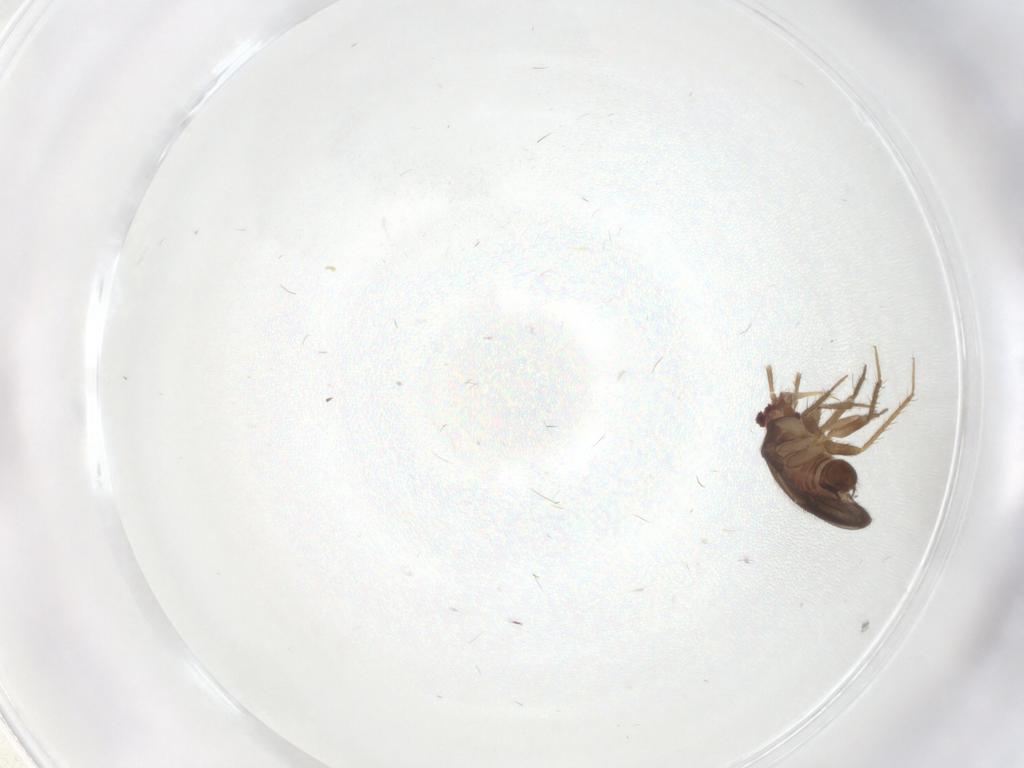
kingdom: Animalia
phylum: Arthropoda
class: Insecta
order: Hemiptera
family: Ceratocombidae
